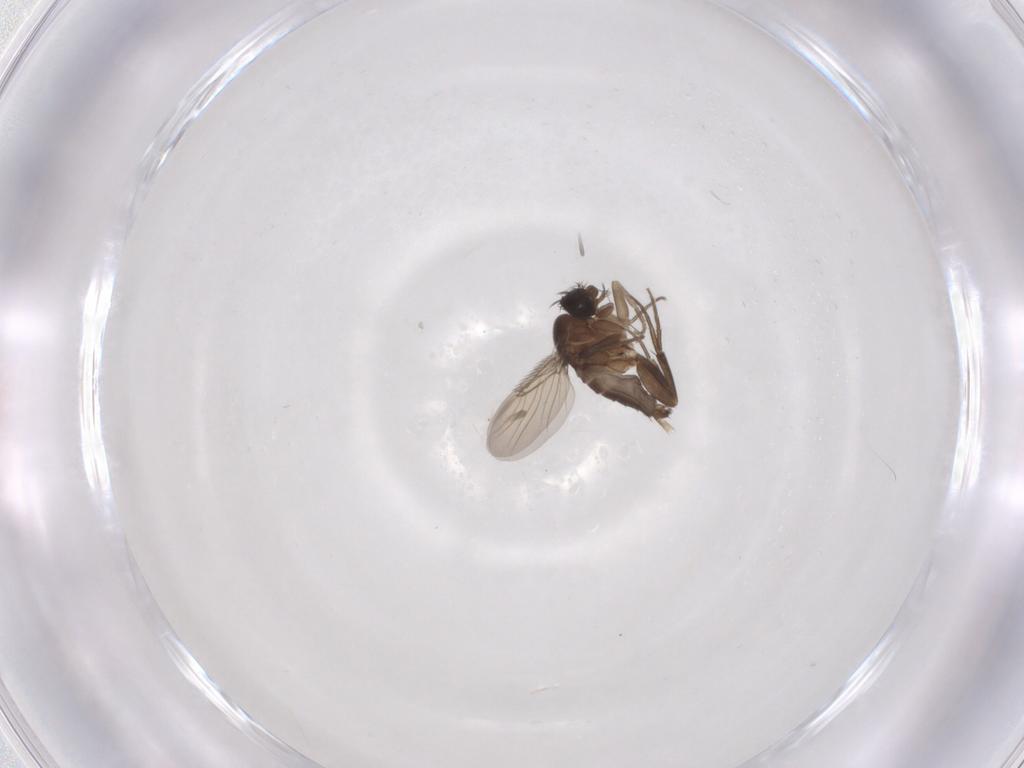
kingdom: Animalia
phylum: Arthropoda
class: Insecta
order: Diptera
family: Phoridae
